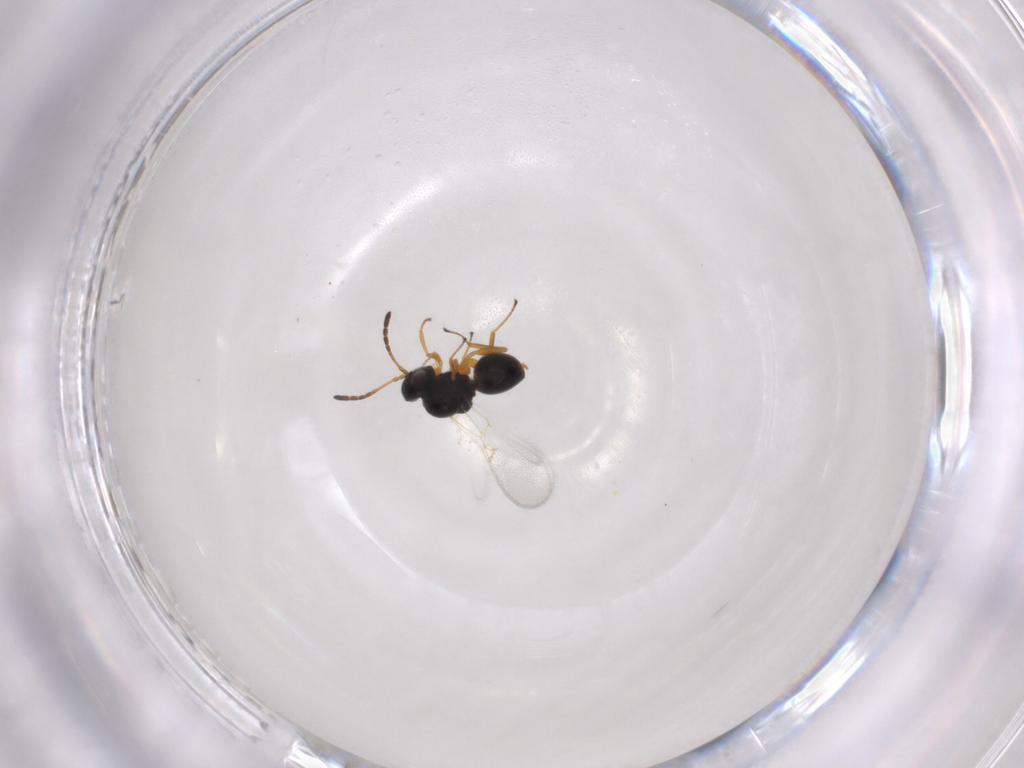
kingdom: Animalia
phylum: Arthropoda
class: Insecta
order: Hymenoptera
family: Figitidae
